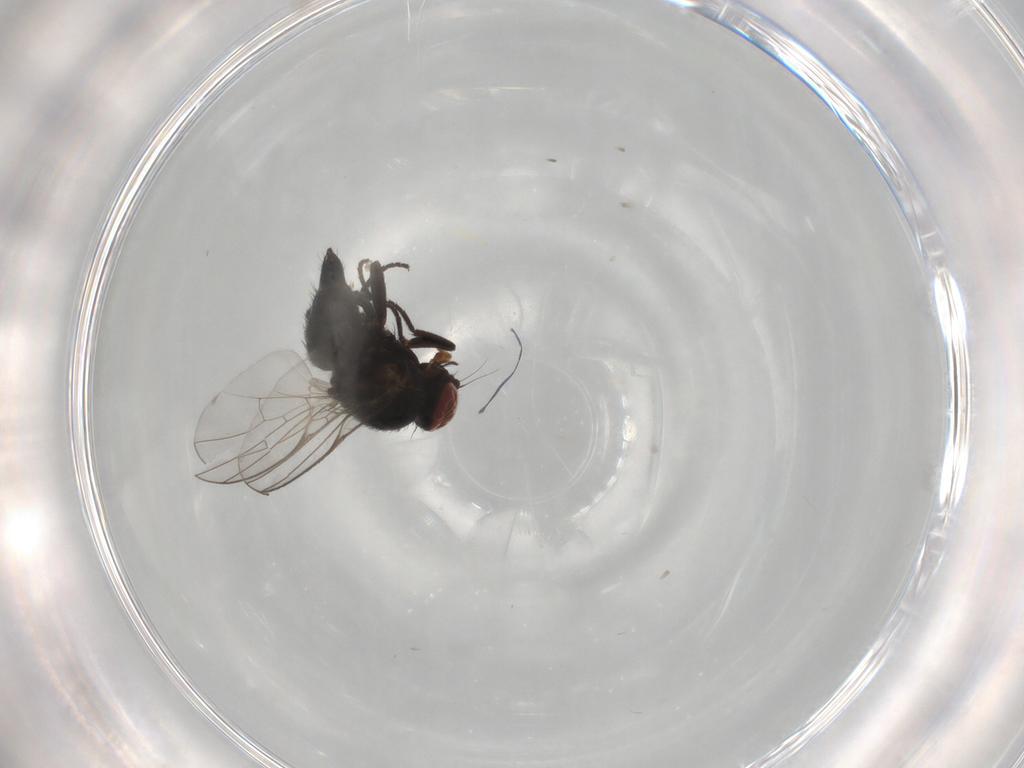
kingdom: Animalia
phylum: Arthropoda
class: Insecta
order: Diptera
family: Agromyzidae
